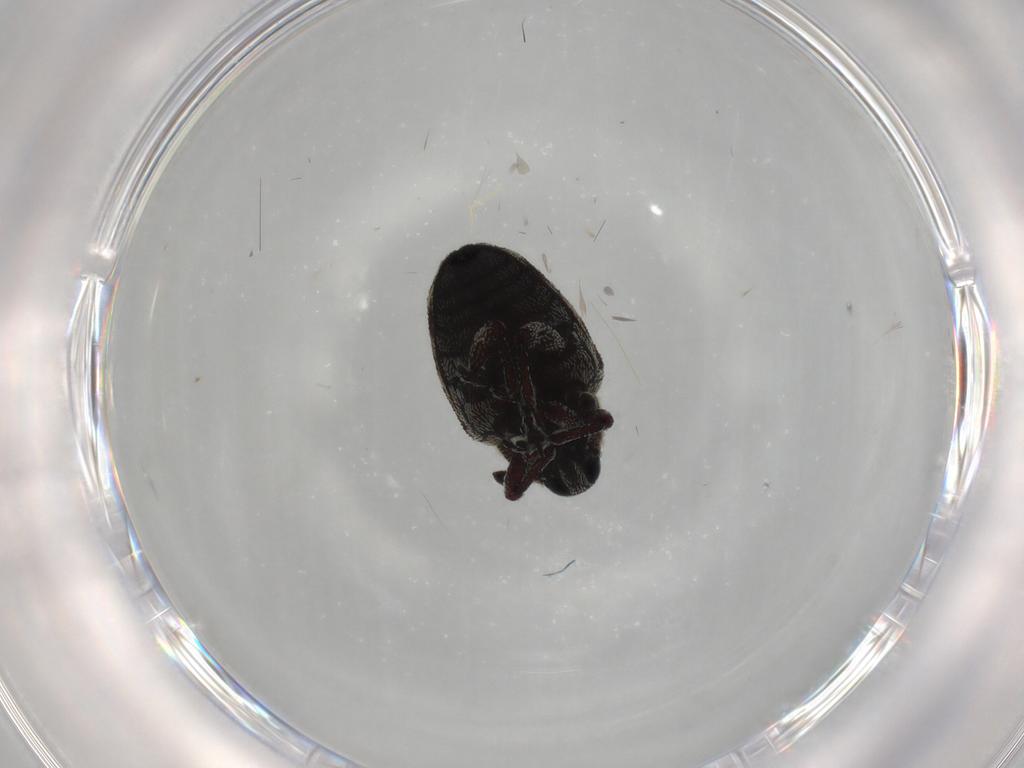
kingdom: Animalia
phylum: Arthropoda
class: Insecta
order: Coleoptera
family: Curculionidae
